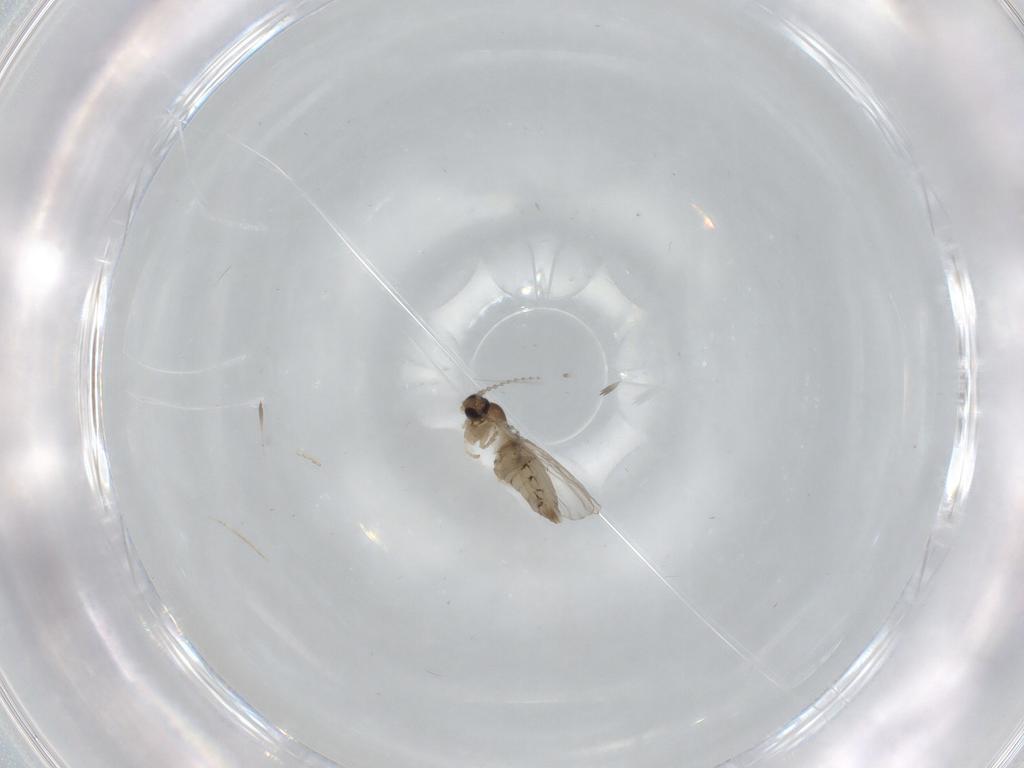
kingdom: Animalia
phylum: Arthropoda
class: Insecta
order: Diptera
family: Cecidomyiidae
